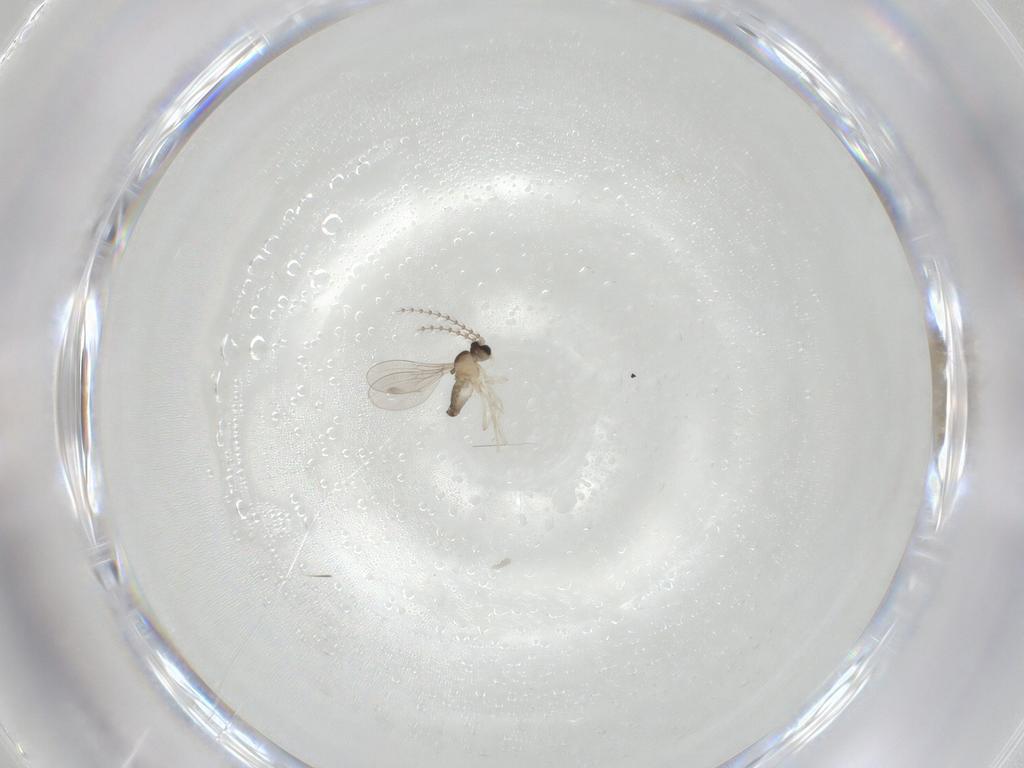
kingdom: Animalia
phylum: Arthropoda
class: Insecta
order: Diptera
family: Cecidomyiidae
